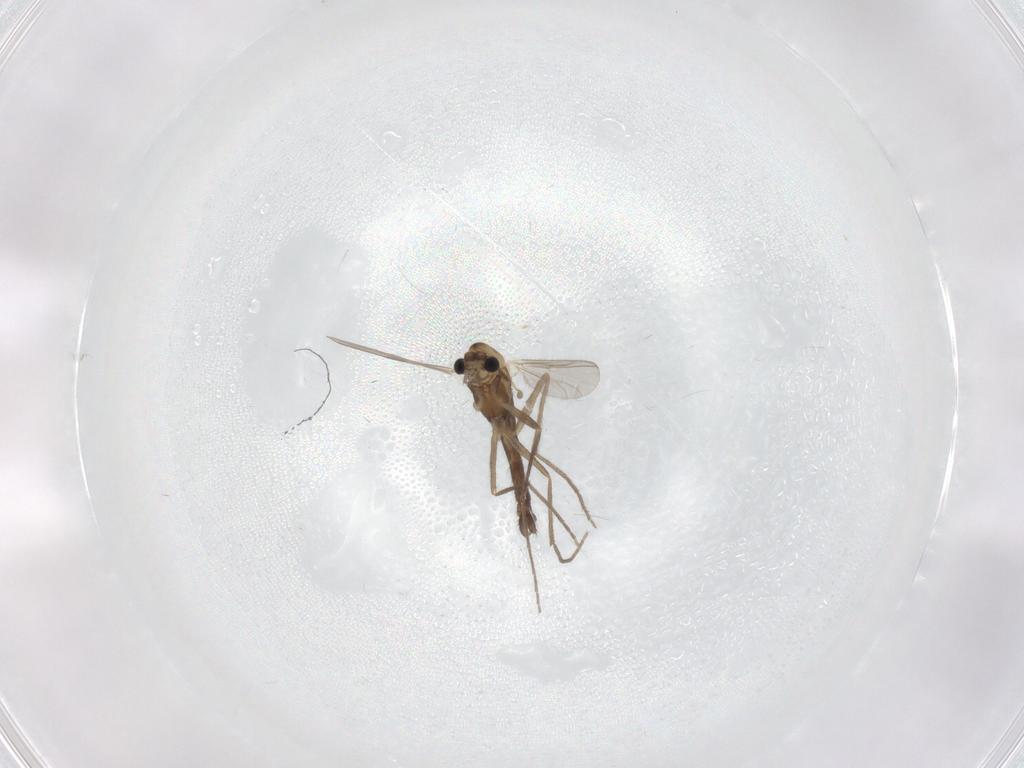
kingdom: Animalia
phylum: Arthropoda
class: Insecta
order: Diptera
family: Chironomidae
